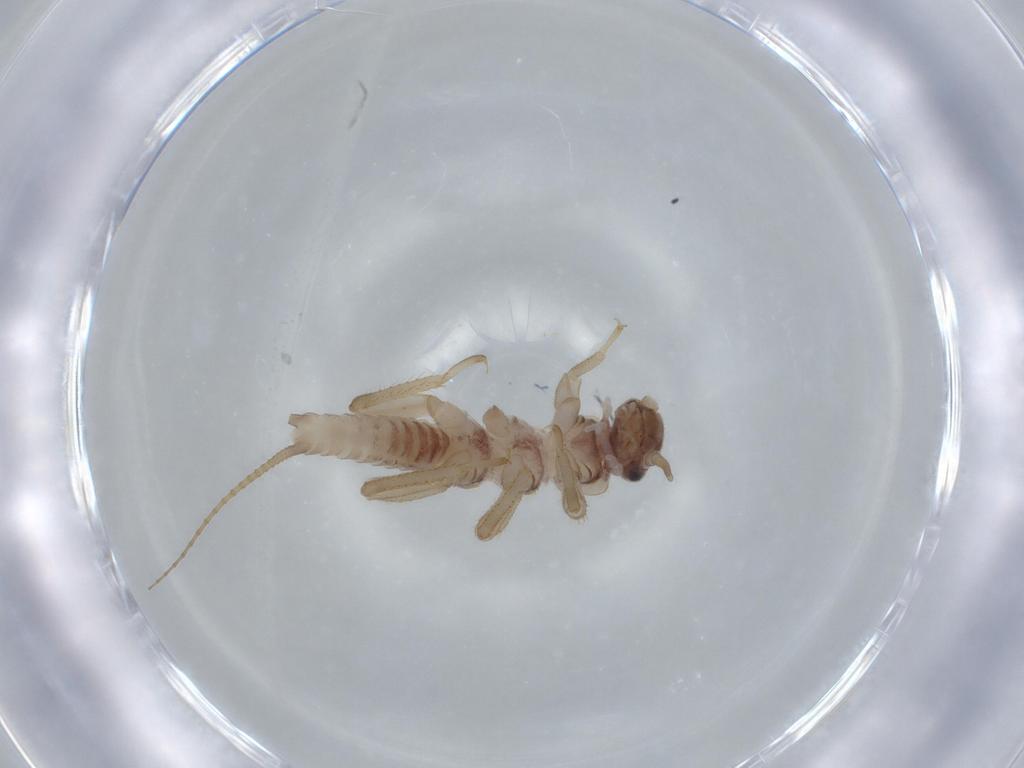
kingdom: Animalia
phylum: Arthropoda
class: Insecta
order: Plecoptera
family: Nemouridae
